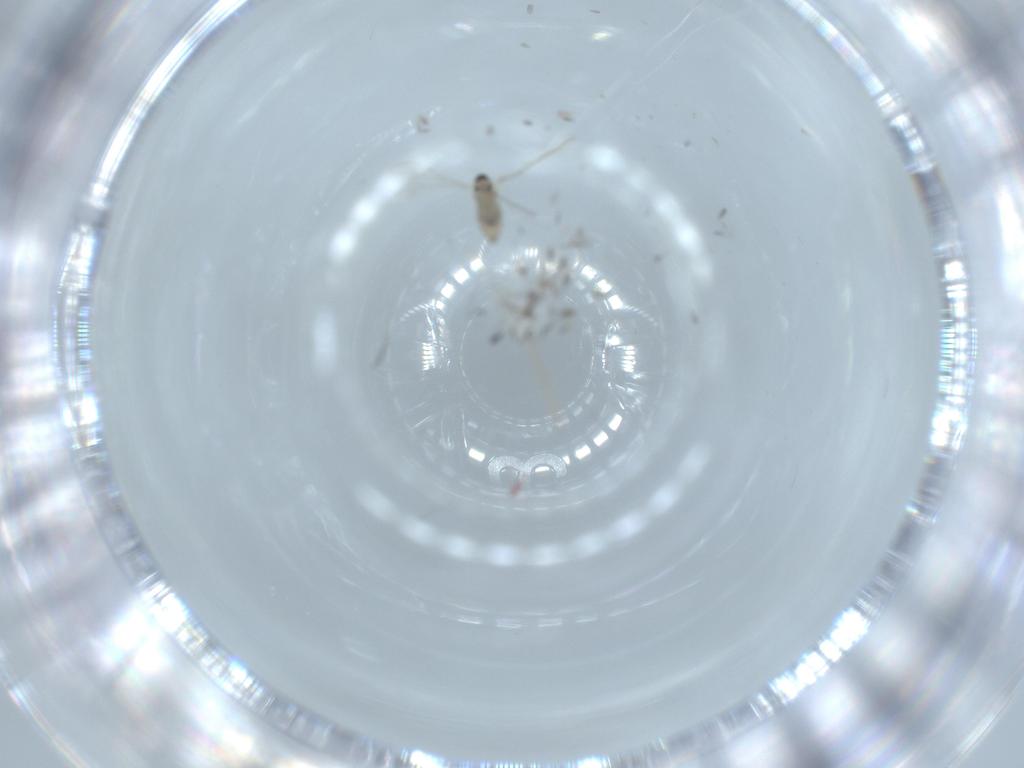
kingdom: Animalia
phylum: Arthropoda
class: Insecta
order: Diptera
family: Cecidomyiidae
